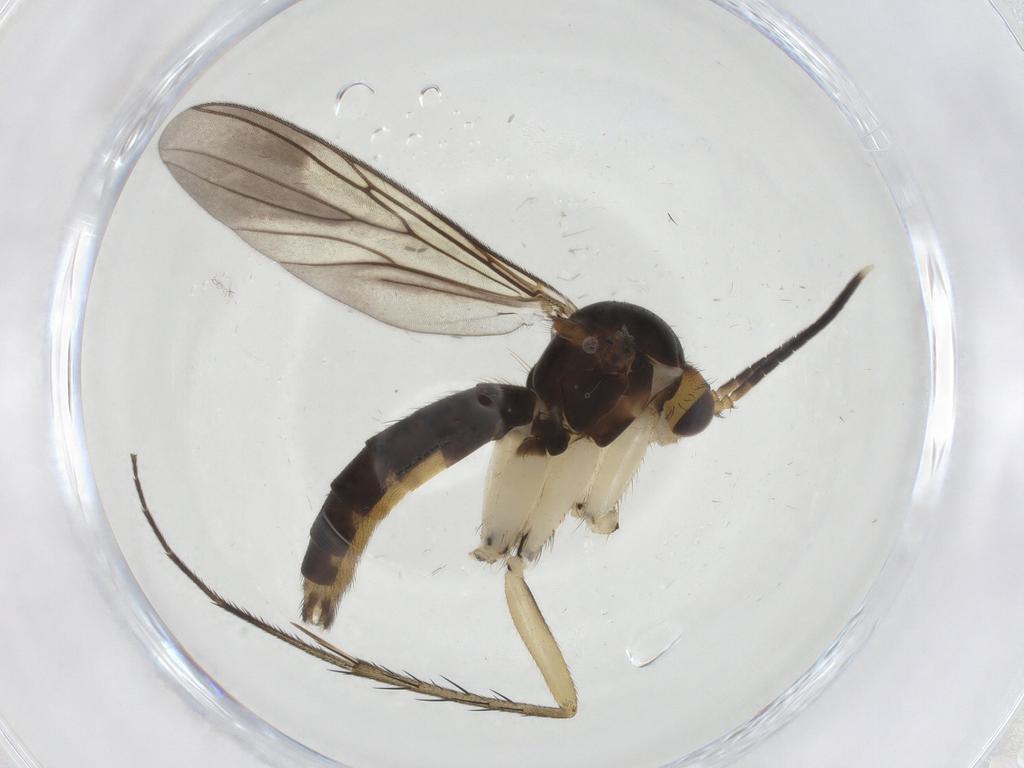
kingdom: Animalia
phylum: Arthropoda
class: Insecta
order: Diptera
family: Mycetophilidae
